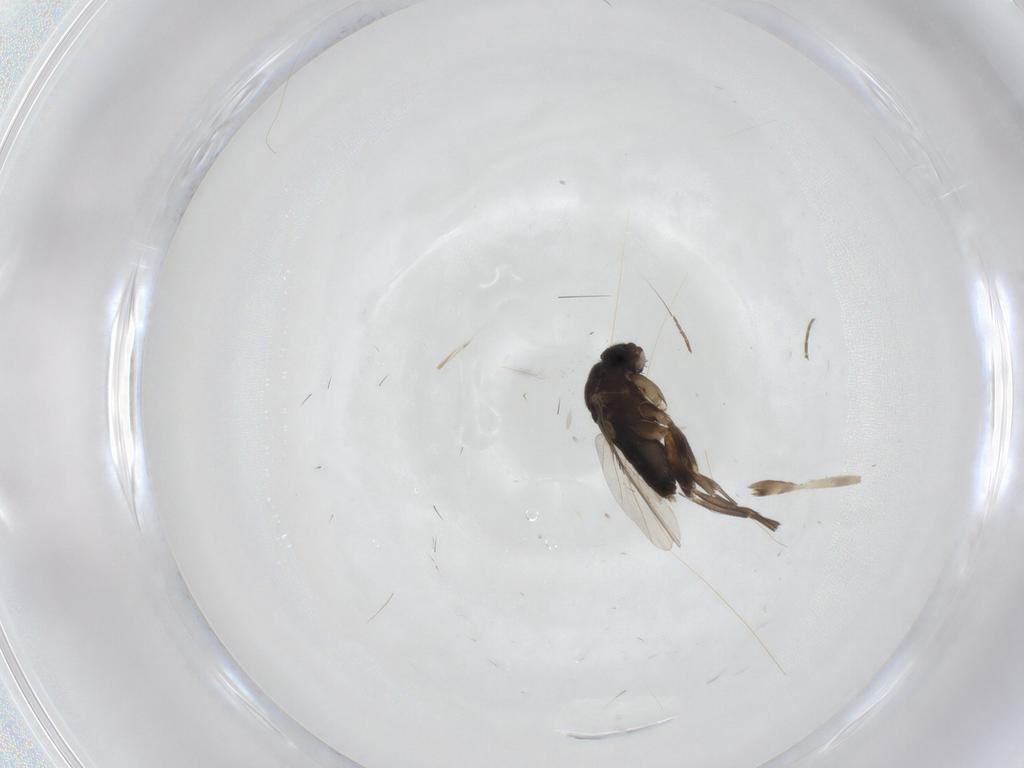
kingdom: Animalia
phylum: Arthropoda
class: Insecta
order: Diptera
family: Phoridae
